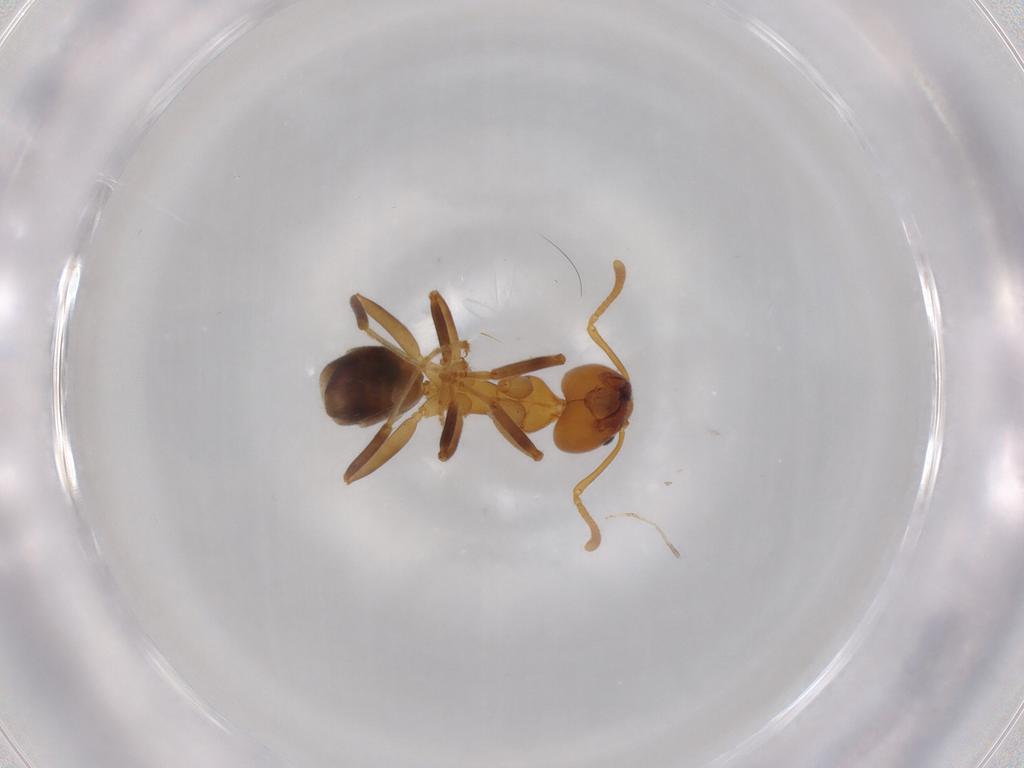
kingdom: Animalia
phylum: Arthropoda
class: Insecta
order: Hymenoptera
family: Formicidae
